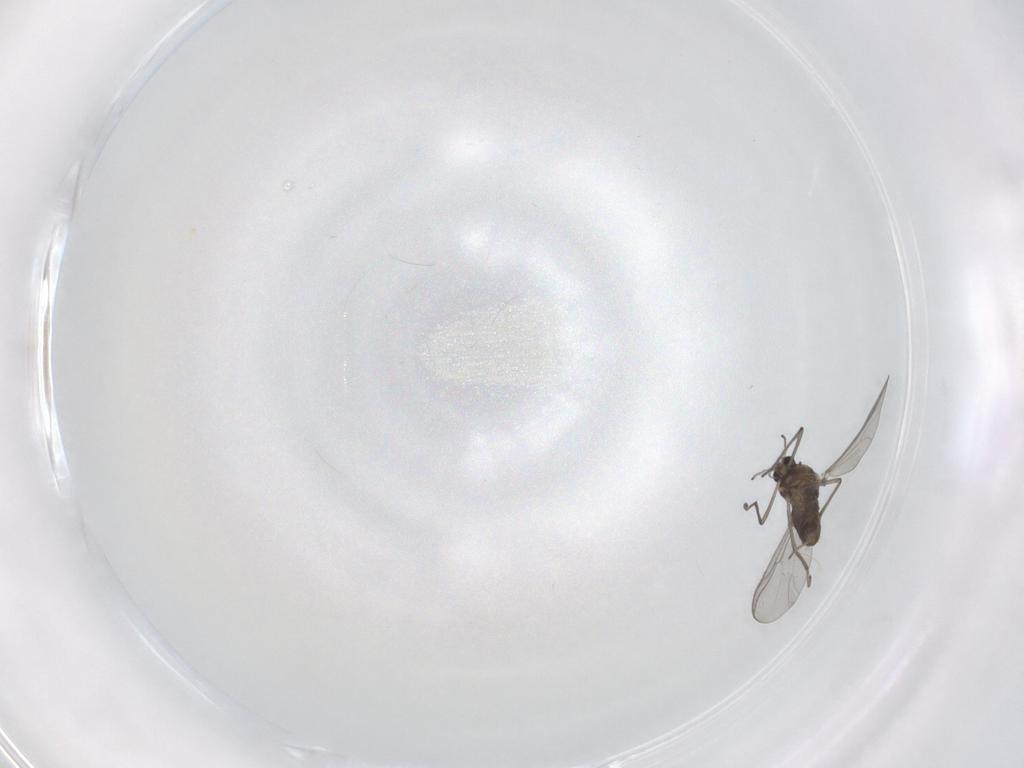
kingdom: Animalia
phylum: Arthropoda
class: Insecta
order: Diptera
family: Chironomidae
